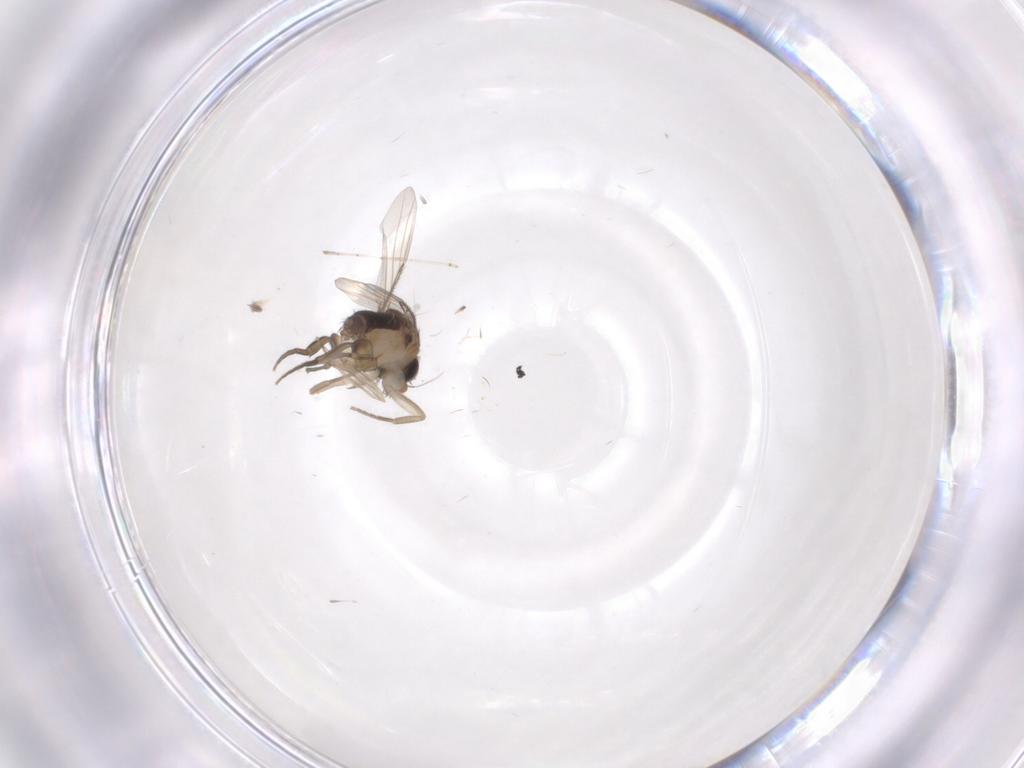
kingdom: Animalia
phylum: Arthropoda
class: Insecta
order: Diptera
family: Phoridae
